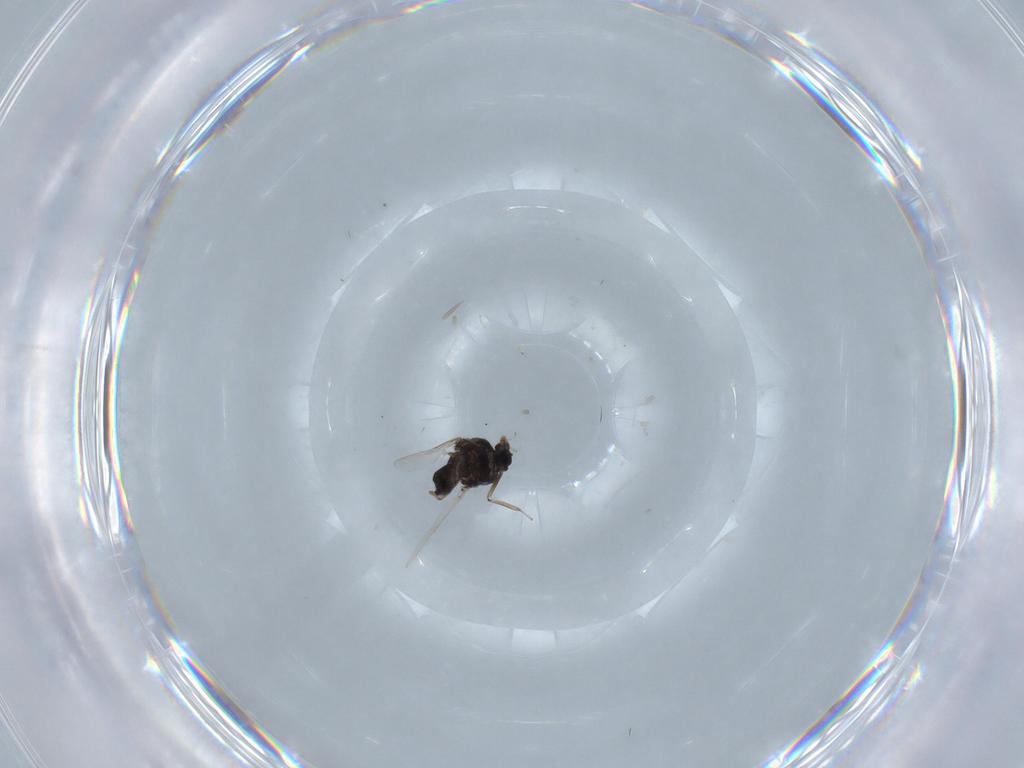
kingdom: Animalia
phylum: Arthropoda
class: Insecta
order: Diptera
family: Ceratopogonidae
